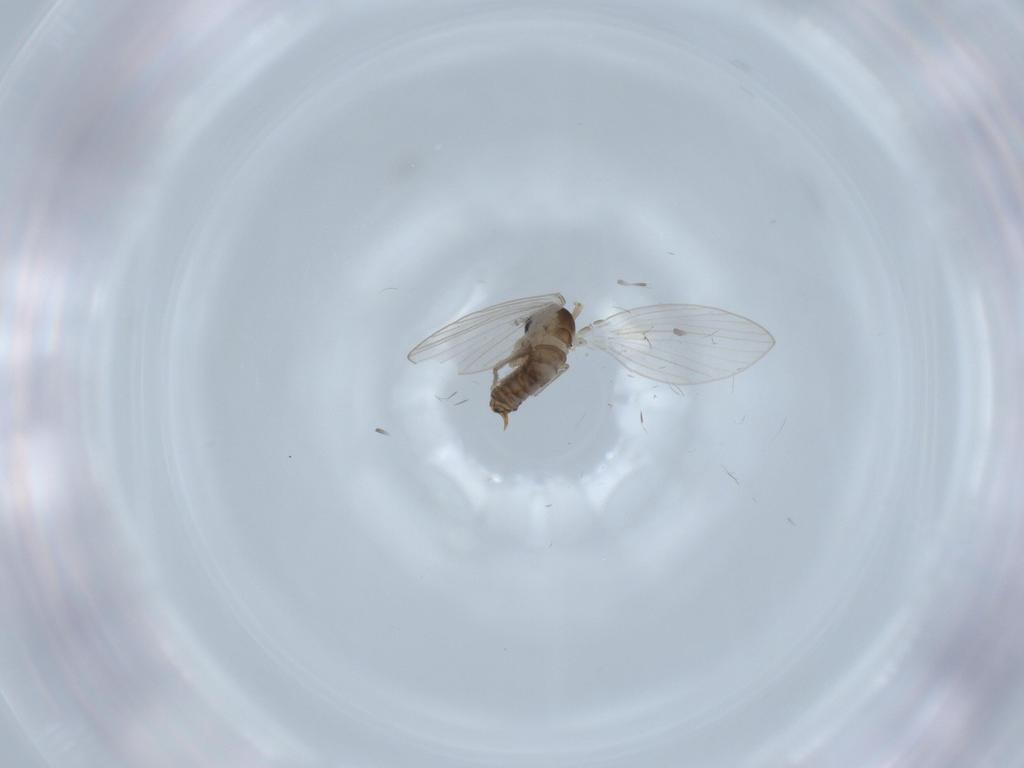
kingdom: Animalia
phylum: Arthropoda
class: Insecta
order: Diptera
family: Psychodidae
